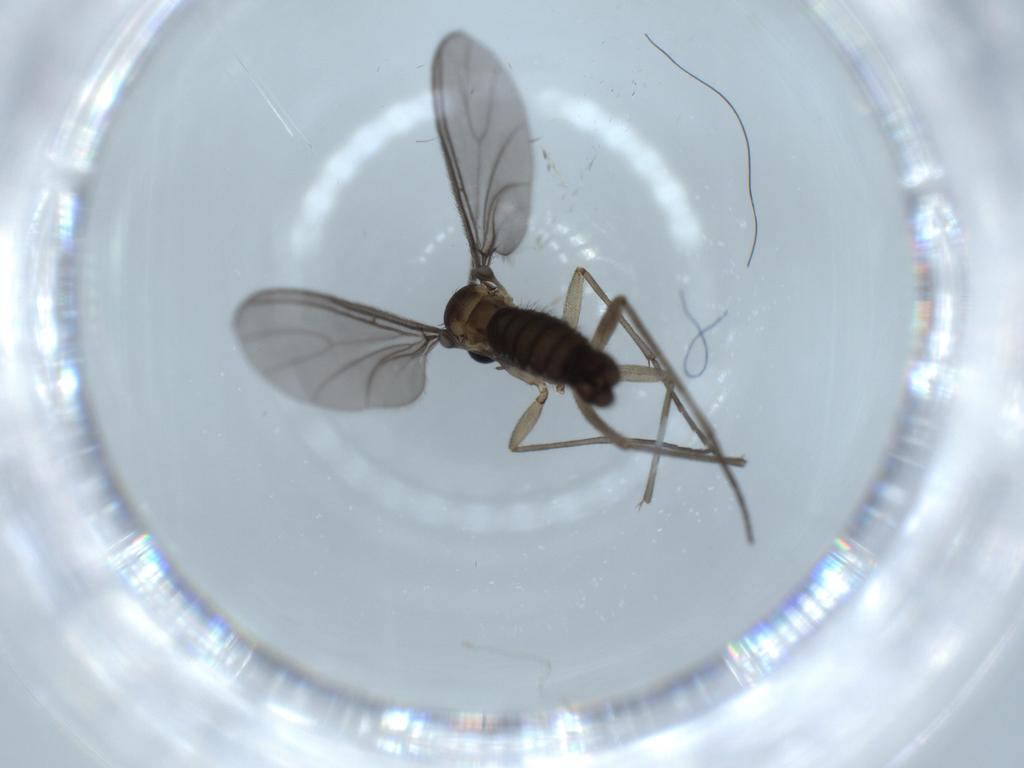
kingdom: Animalia
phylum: Arthropoda
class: Insecta
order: Diptera
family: Sciaridae
